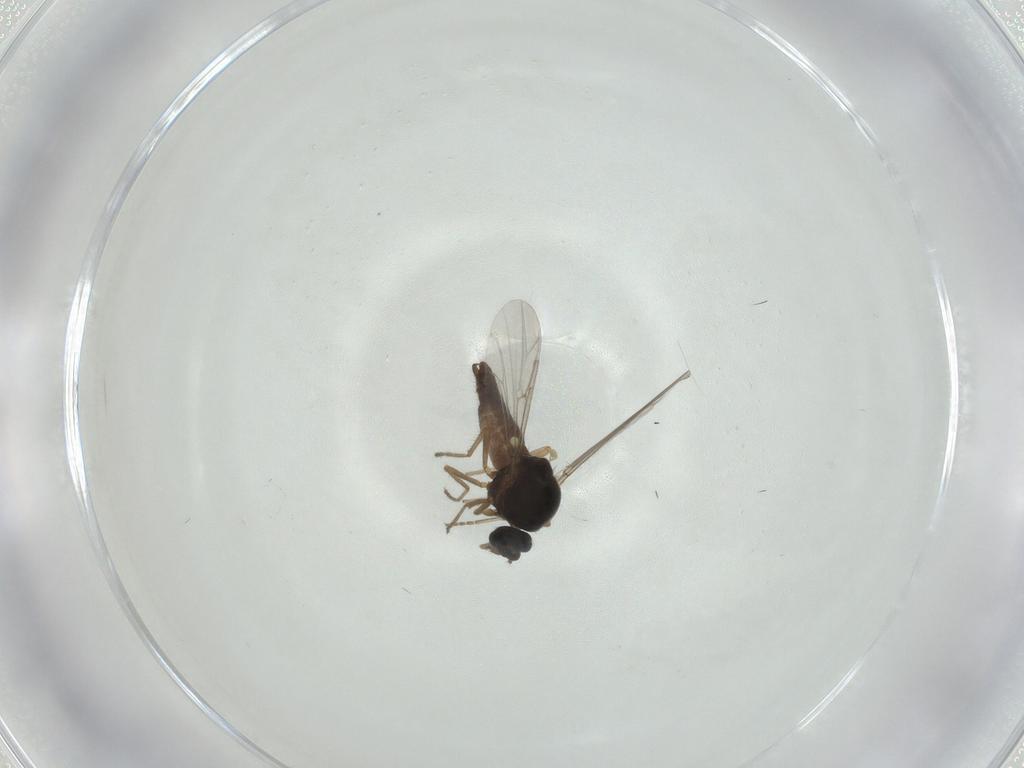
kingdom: Animalia
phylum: Arthropoda
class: Insecta
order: Diptera
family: Ceratopogonidae
